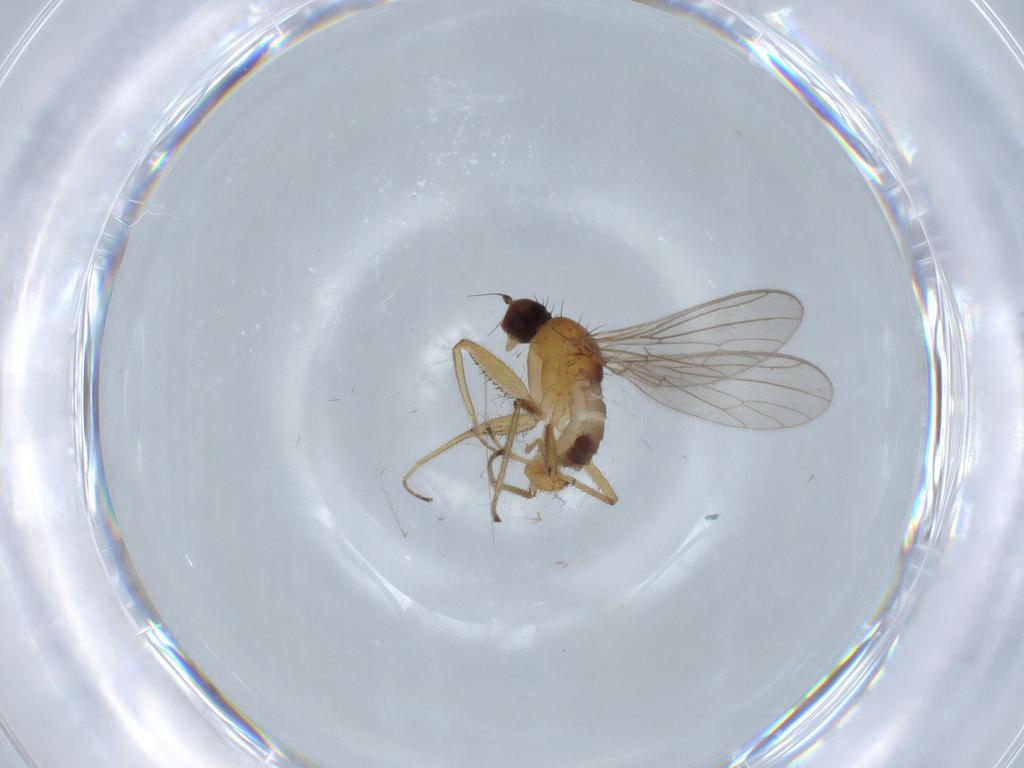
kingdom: Animalia
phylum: Arthropoda
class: Insecta
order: Diptera
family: Empididae
